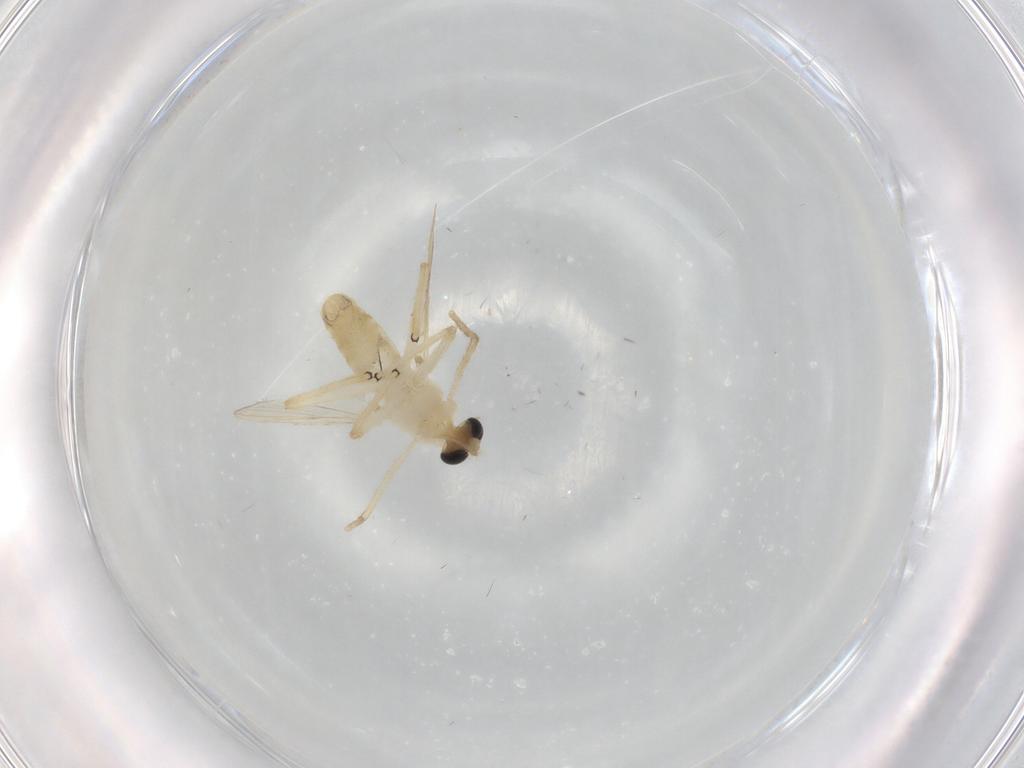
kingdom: Animalia
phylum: Arthropoda
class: Insecta
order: Diptera
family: Chironomidae
